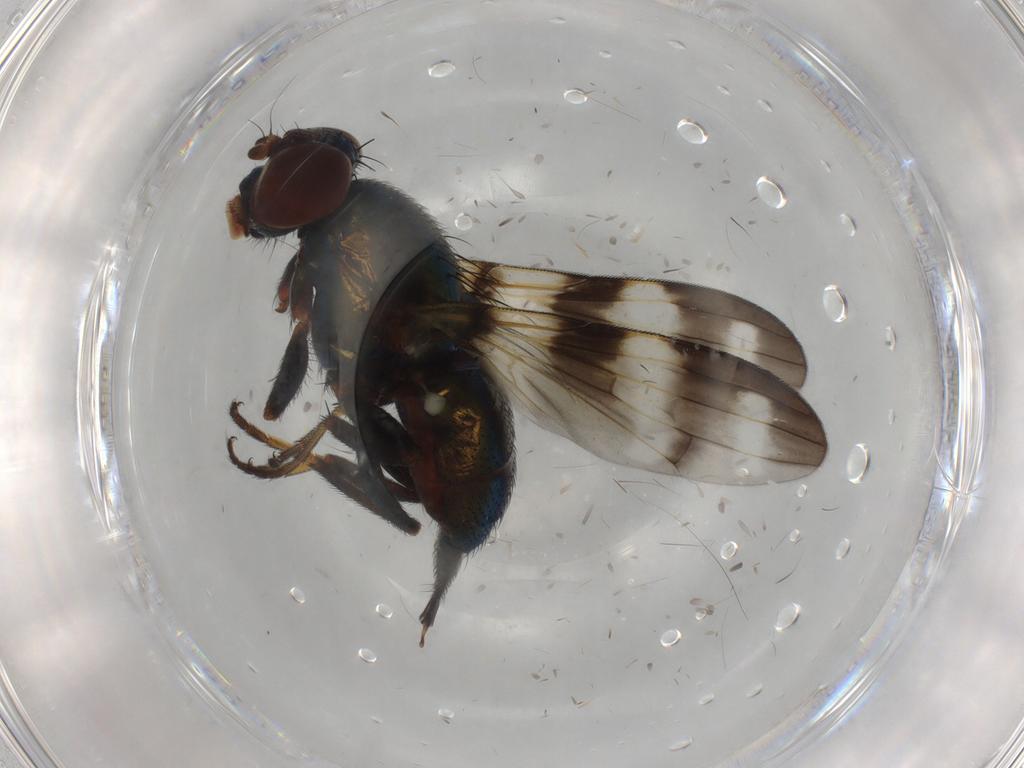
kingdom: Animalia
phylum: Arthropoda
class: Insecta
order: Diptera
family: Ulidiidae
